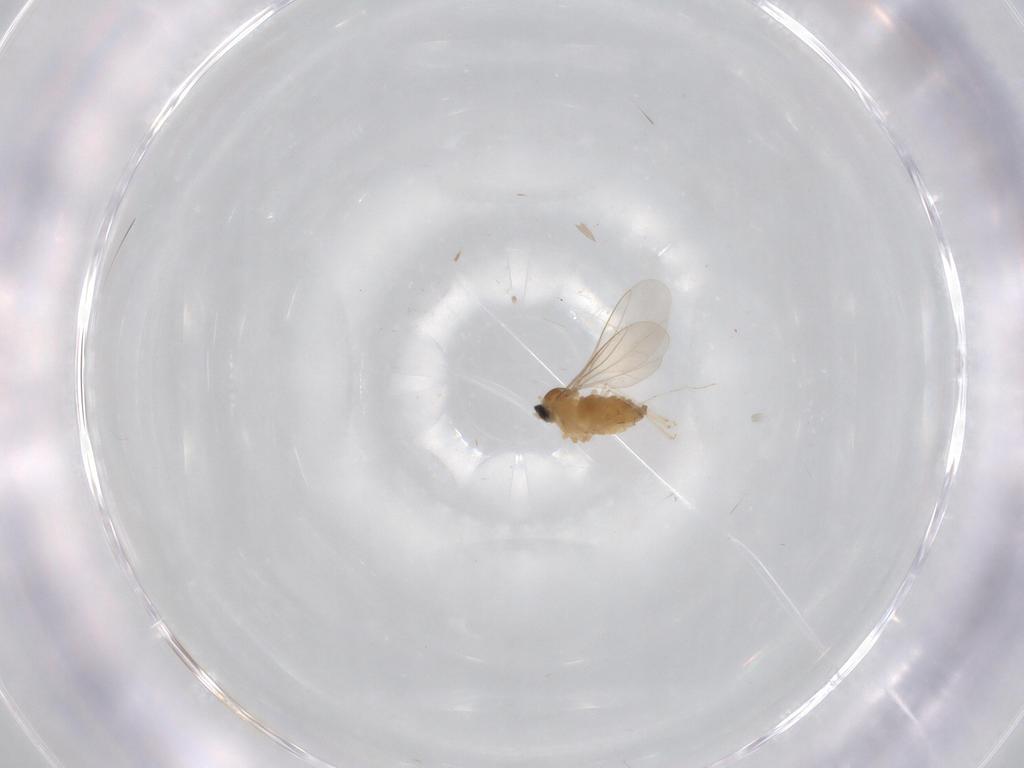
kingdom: Animalia
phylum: Arthropoda
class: Insecta
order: Diptera
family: Cecidomyiidae
